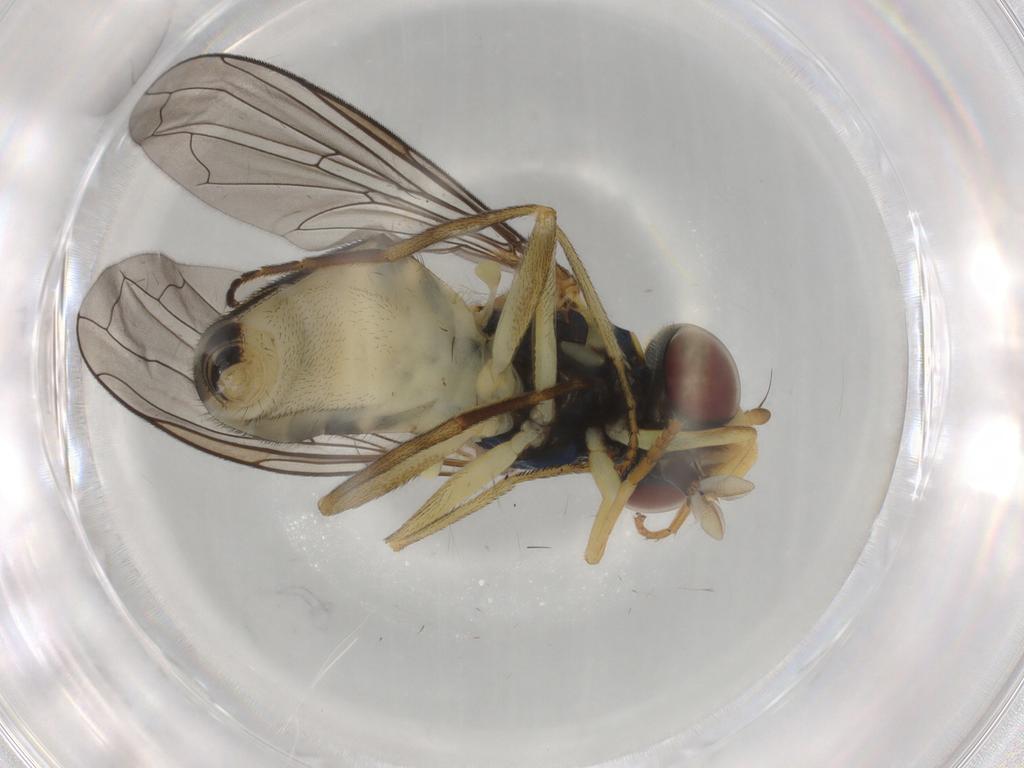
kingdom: Animalia
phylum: Arthropoda
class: Insecta
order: Diptera
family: Syrphidae
